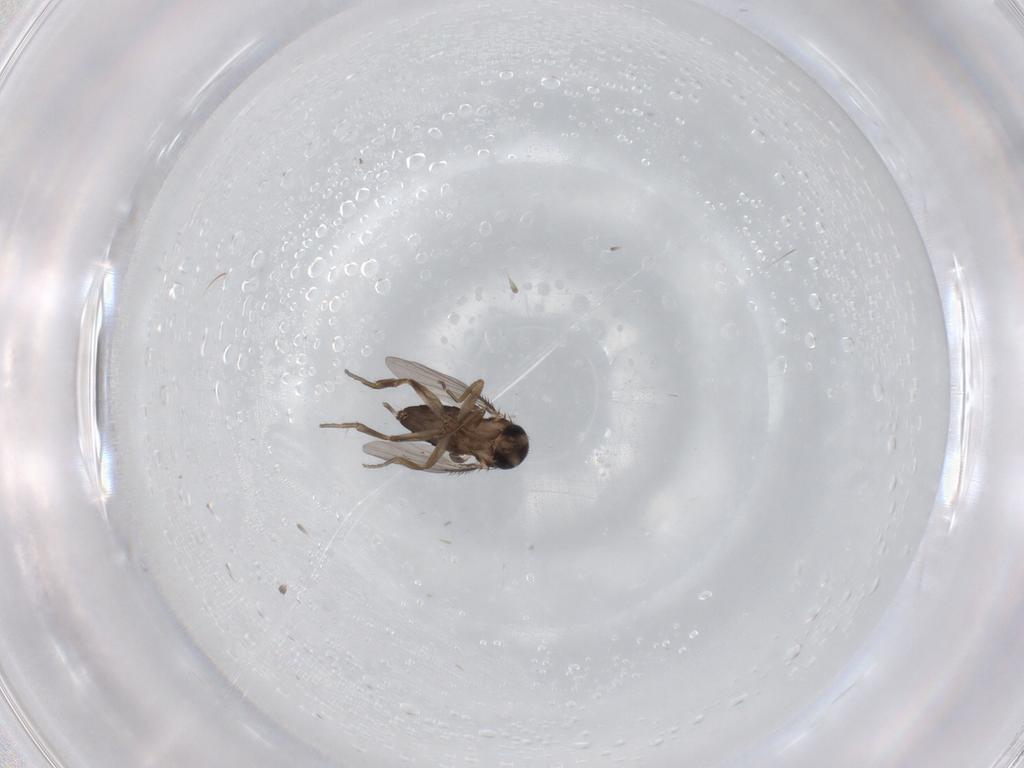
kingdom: Animalia
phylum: Arthropoda
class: Insecta
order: Diptera
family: Phoridae
